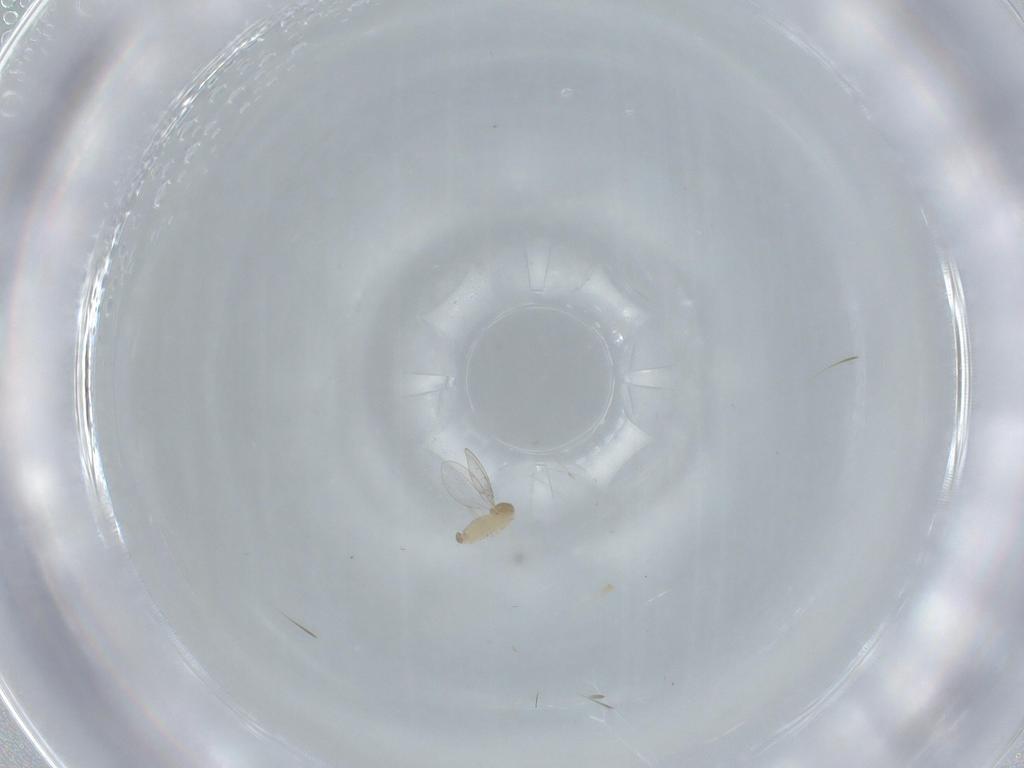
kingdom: Animalia
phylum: Arthropoda
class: Insecta
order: Diptera
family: Cecidomyiidae
